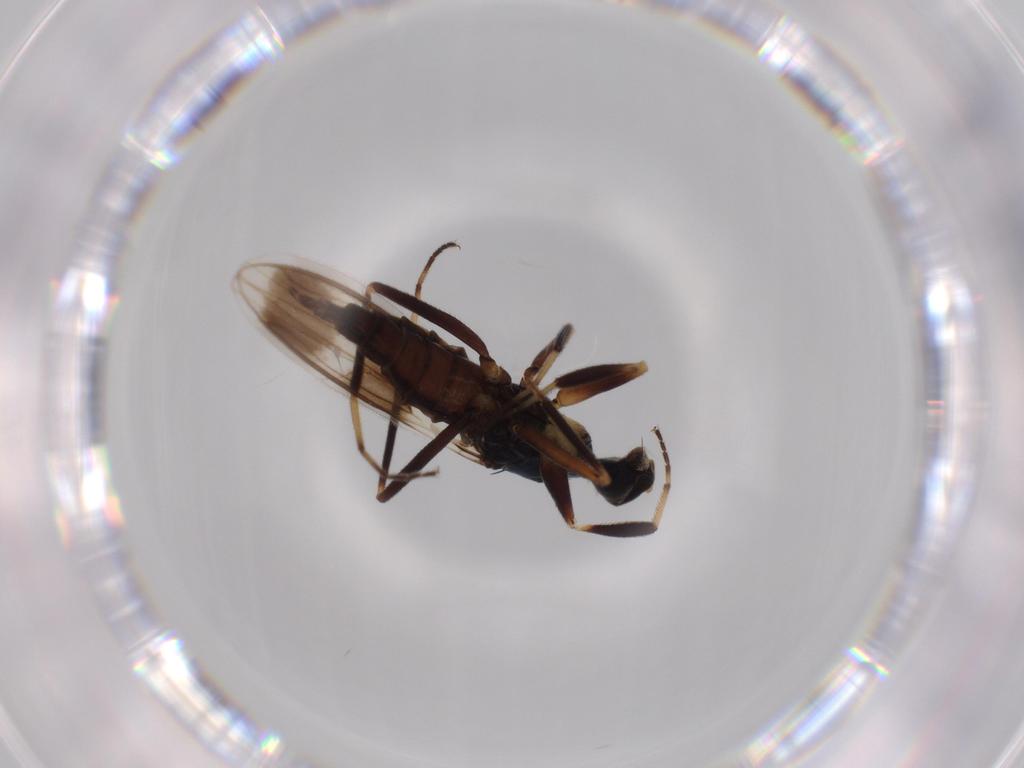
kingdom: Animalia
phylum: Arthropoda
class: Insecta
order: Diptera
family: Hybotidae
